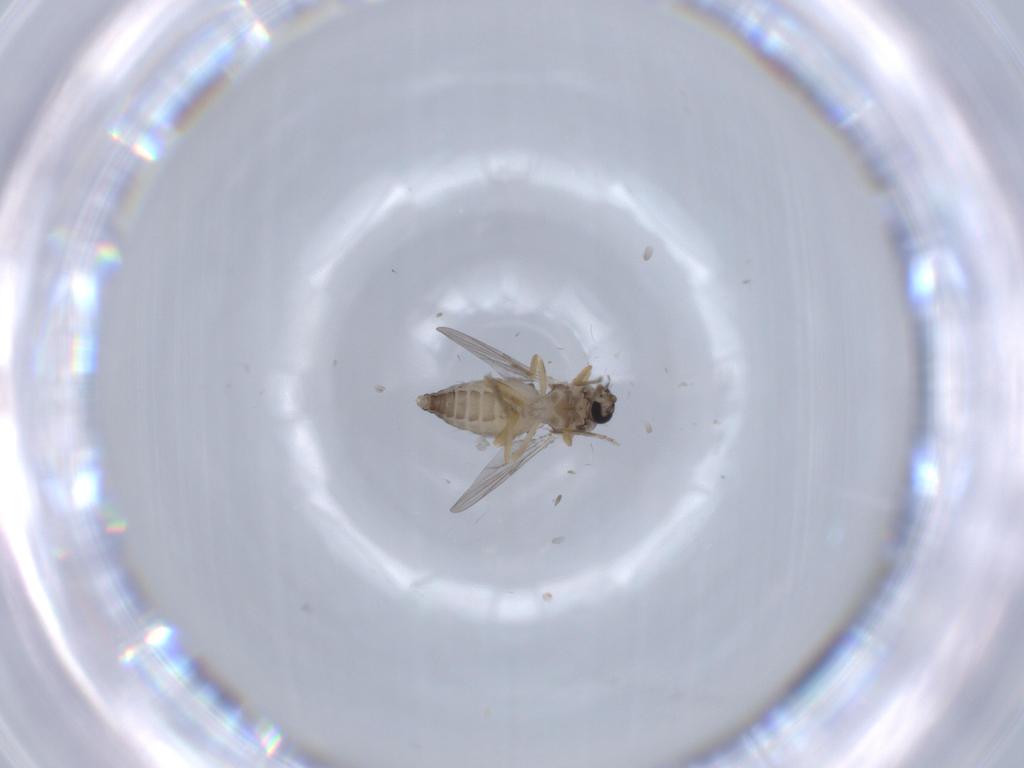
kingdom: Animalia
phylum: Arthropoda
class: Insecta
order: Diptera
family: Ceratopogonidae
